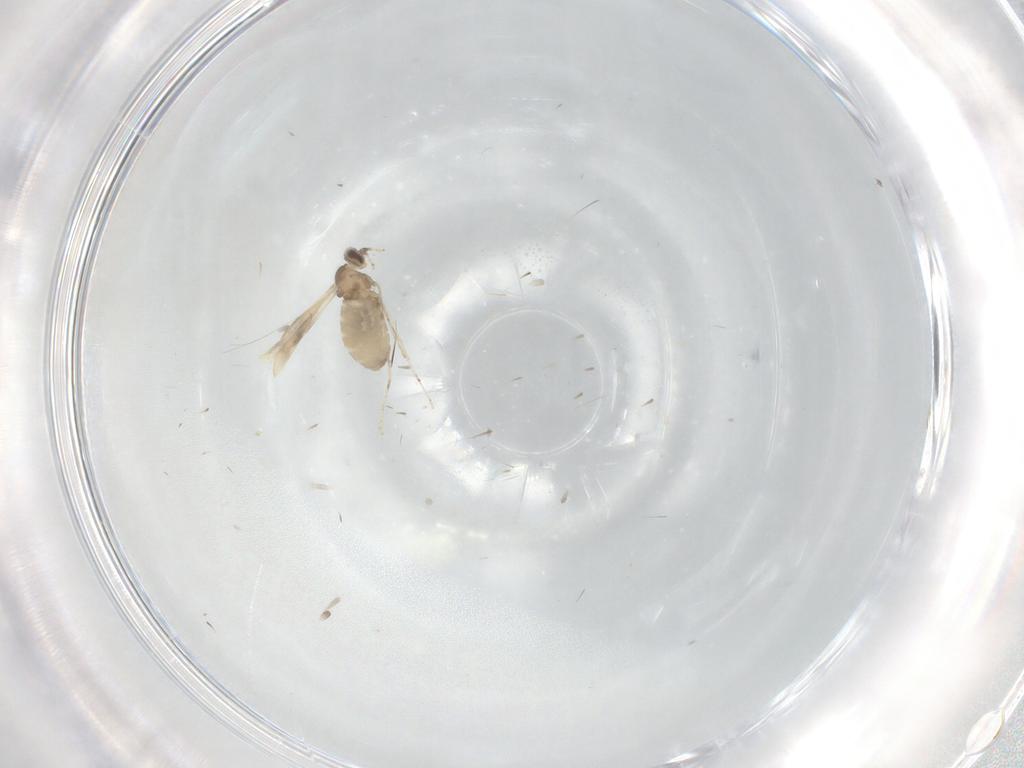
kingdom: Animalia
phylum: Arthropoda
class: Insecta
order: Diptera
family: Cecidomyiidae
